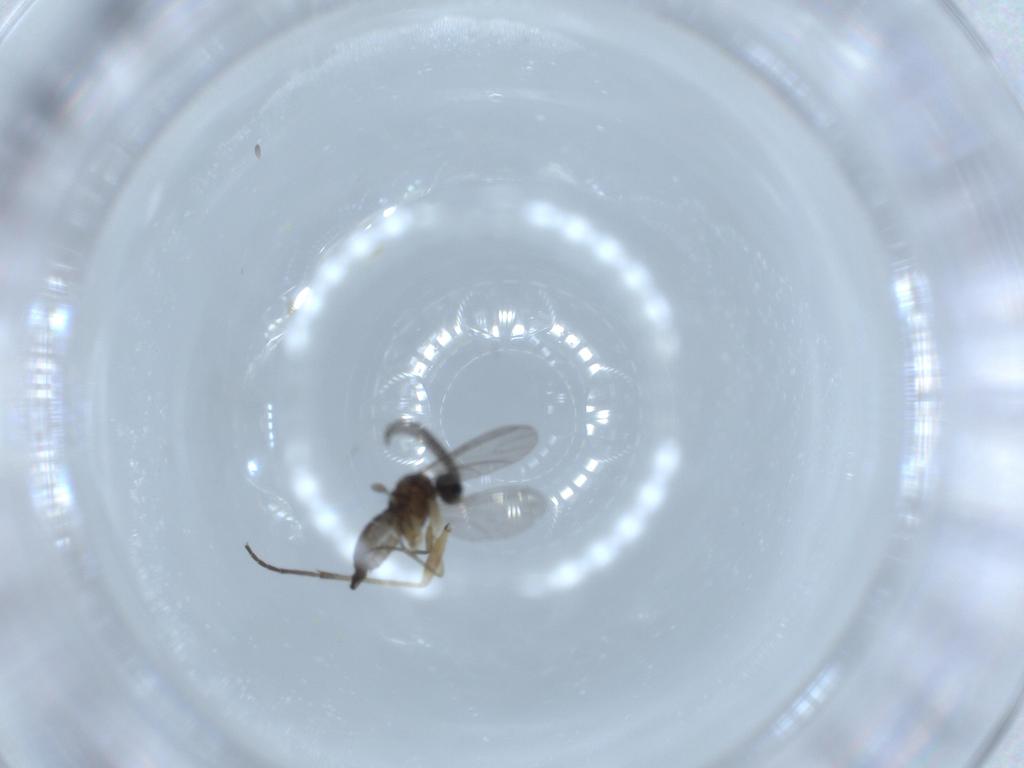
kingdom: Animalia
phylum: Arthropoda
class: Insecta
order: Diptera
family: Sciaridae
